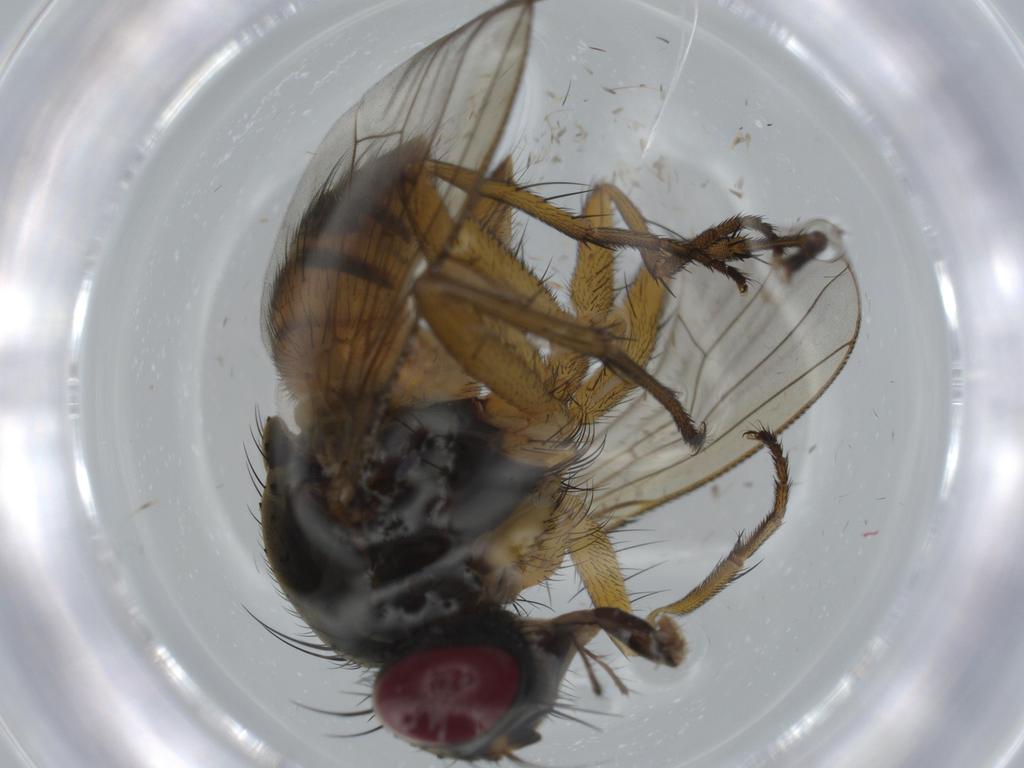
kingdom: Animalia
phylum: Arthropoda
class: Insecta
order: Diptera
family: Muscidae
